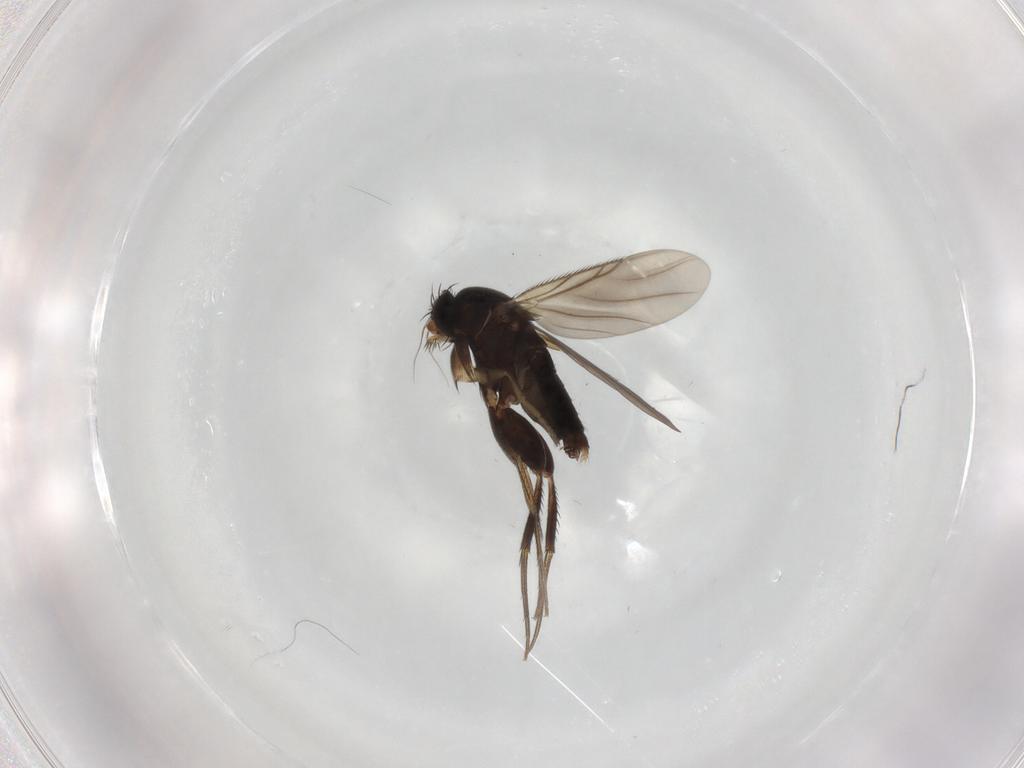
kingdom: Animalia
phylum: Arthropoda
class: Insecta
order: Diptera
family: Phoridae
